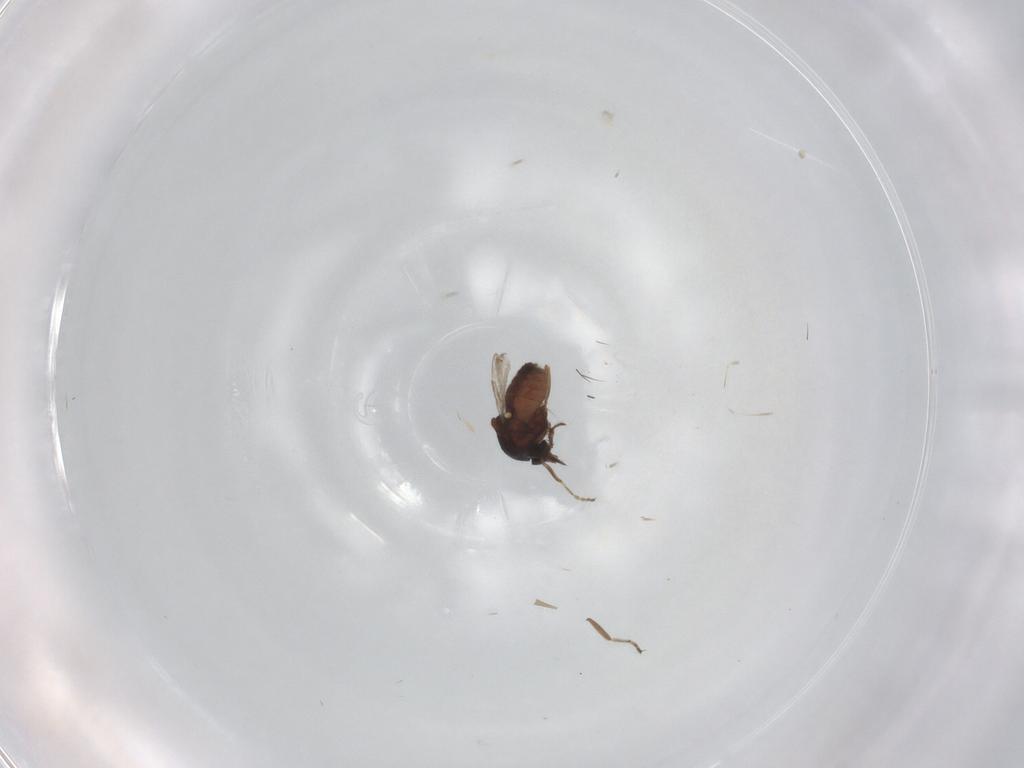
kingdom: Animalia
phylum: Arthropoda
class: Insecta
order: Diptera
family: Ceratopogonidae
